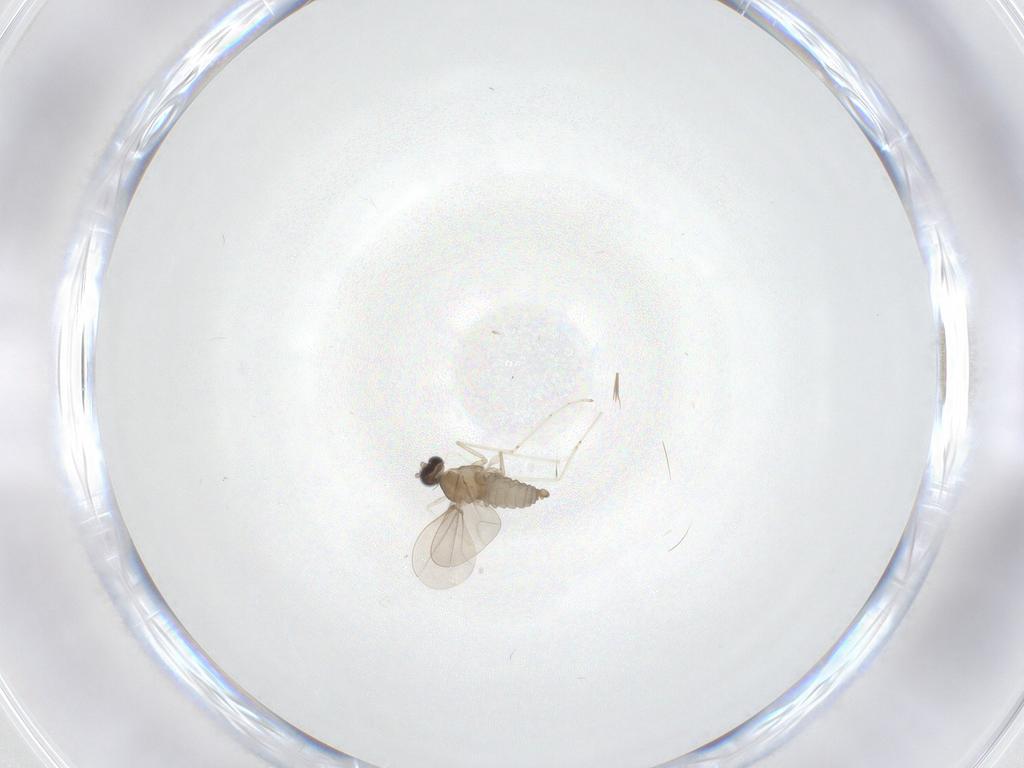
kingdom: Animalia
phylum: Arthropoda
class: Insecta
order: Diptera
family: Cecidomyiidae
